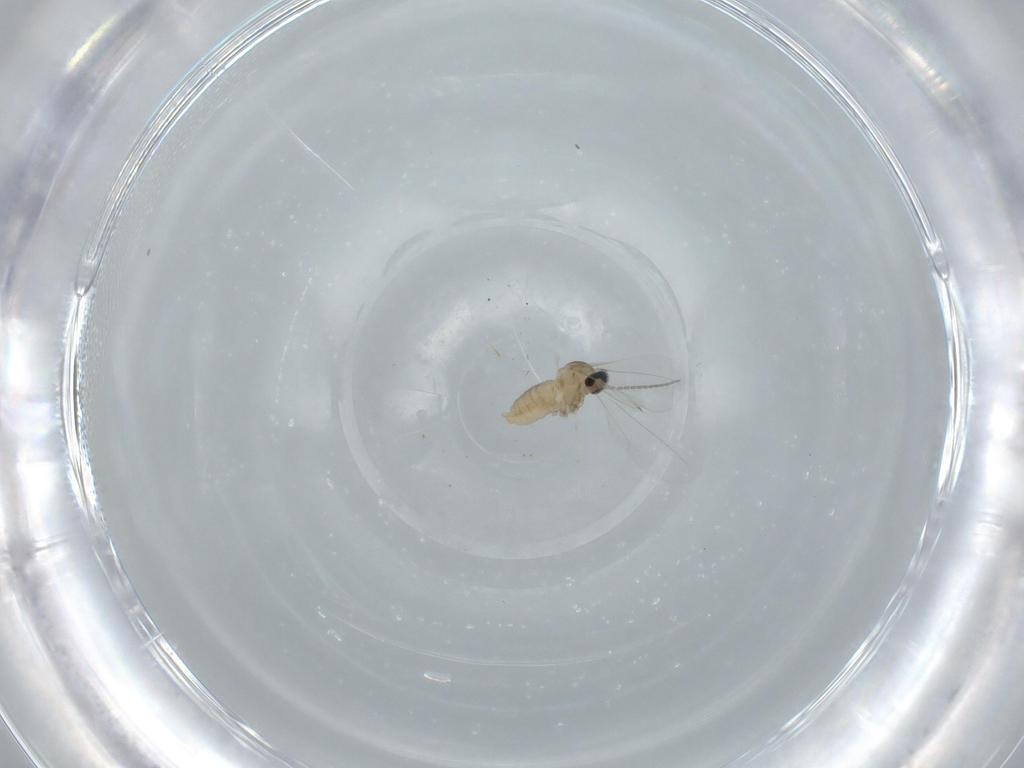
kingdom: Animalia
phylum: Arthropoda
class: Insecta
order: Diptera
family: Cecidomyiidae
